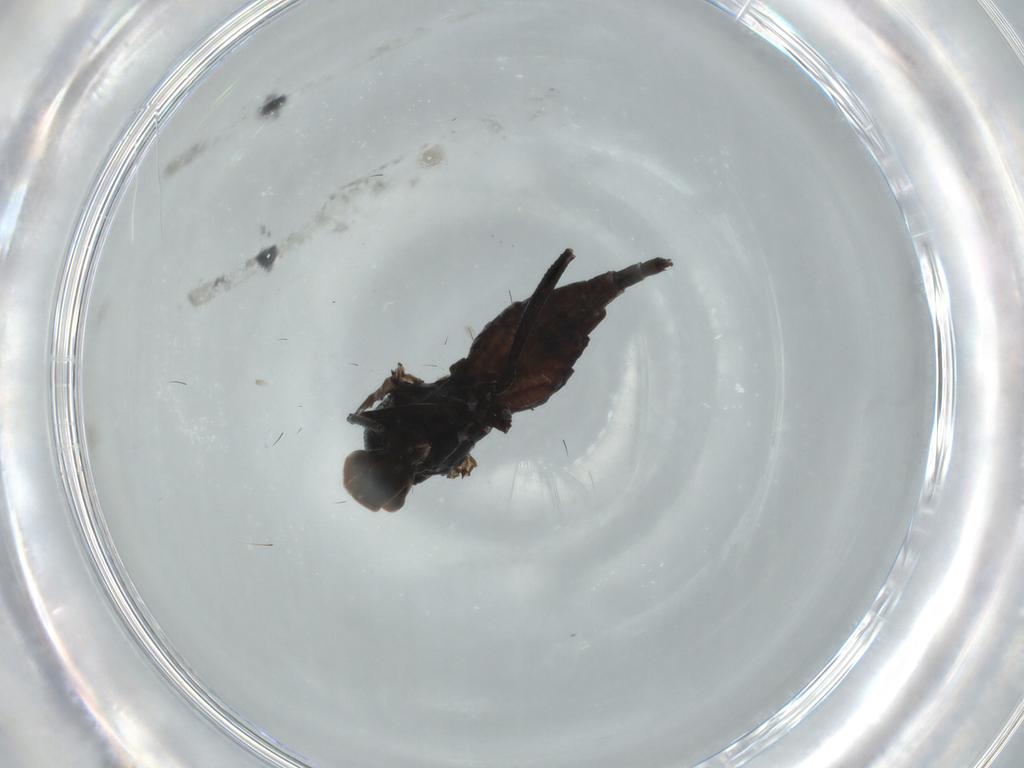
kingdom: Animalia
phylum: Arthropoda
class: Insecta
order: Diptera
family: Hybotidae
